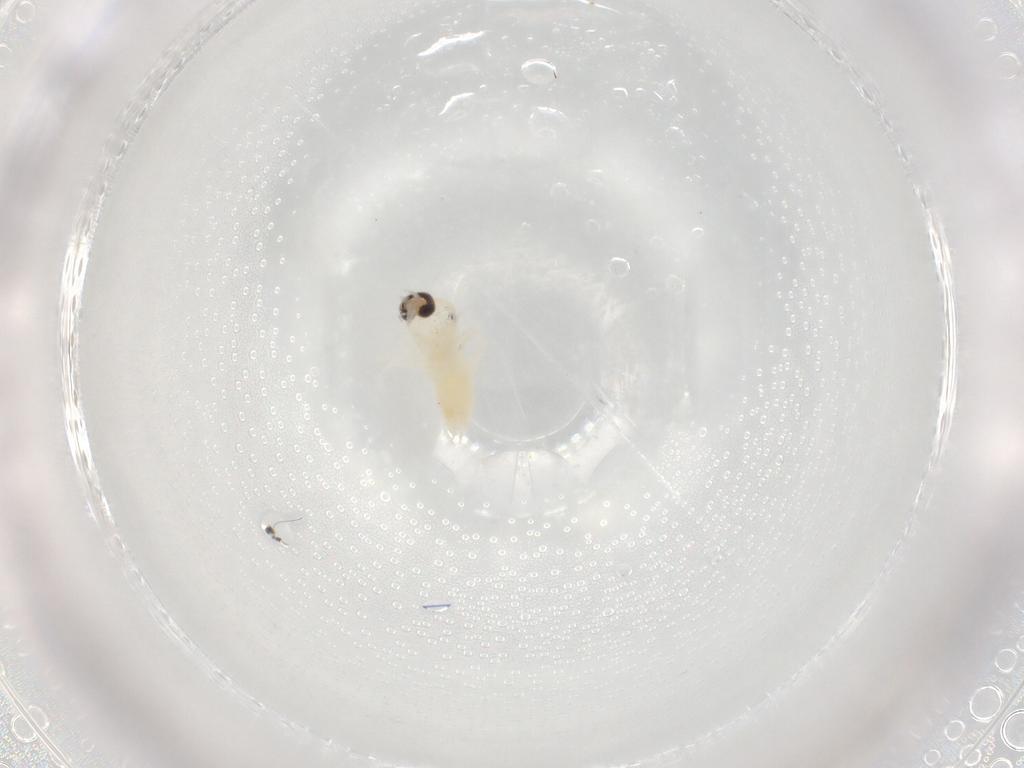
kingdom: Animalia
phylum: Arthropoda
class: Insecta
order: Diptera
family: Cecidomyiidae
